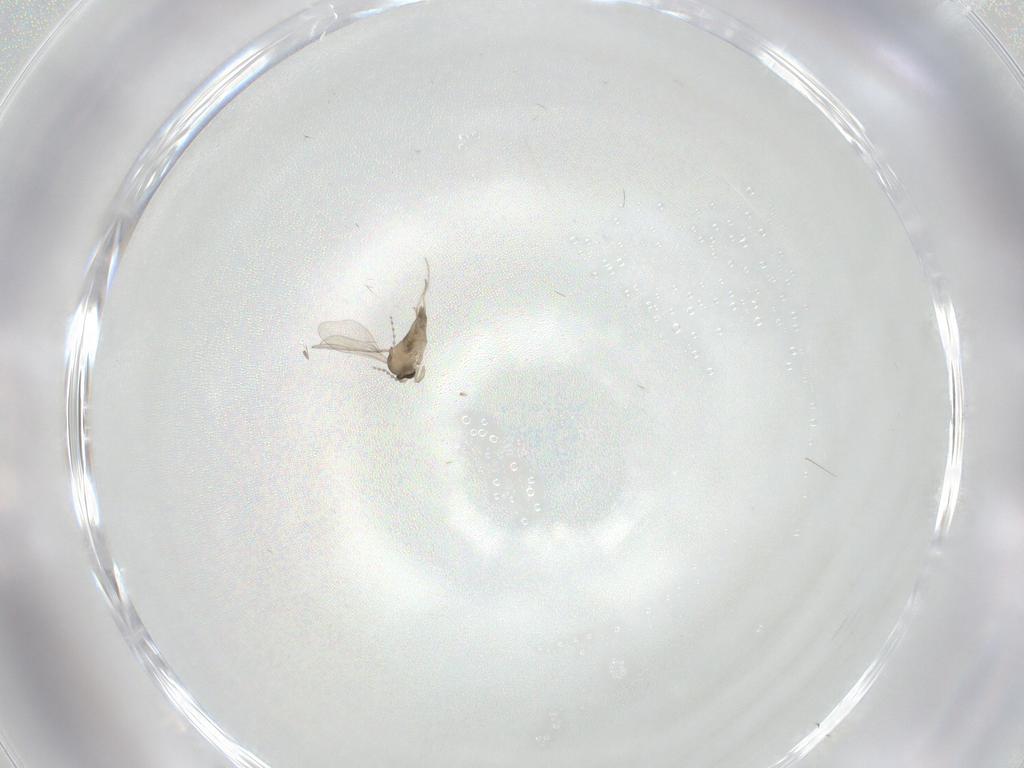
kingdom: Animalia
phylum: Arthropoda
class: Insecta
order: Diptera
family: Cecidomyiidae
